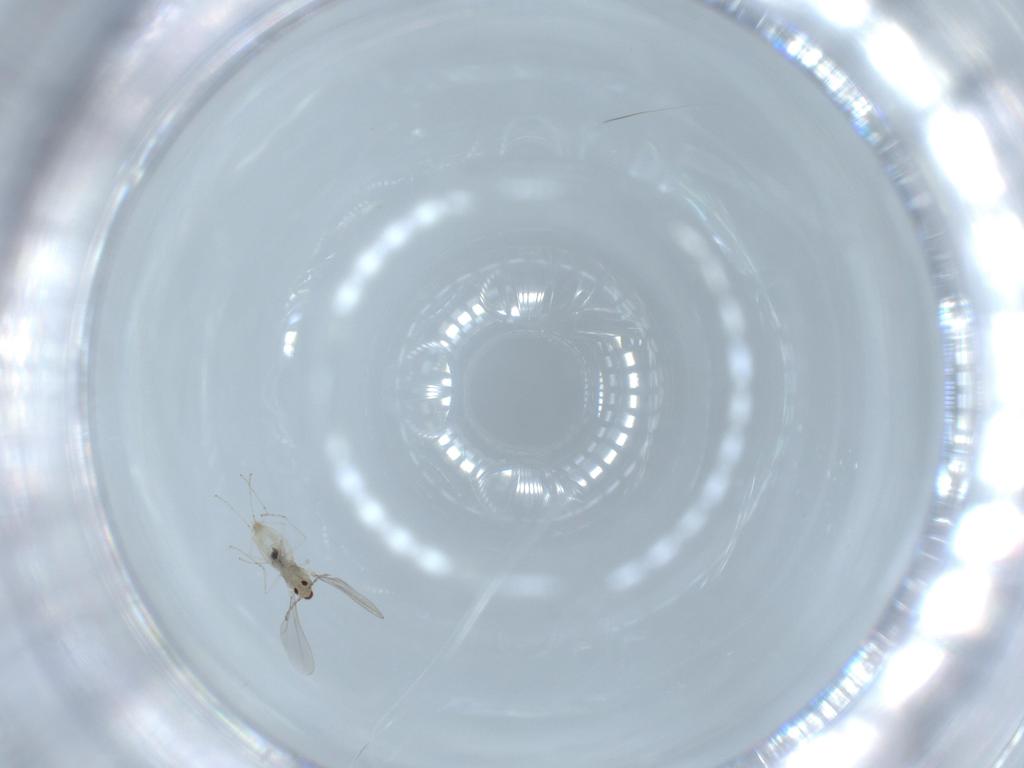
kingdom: Animalia
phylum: Arthropoda
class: Insecta
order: Diptera
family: Cecidomyiidae
